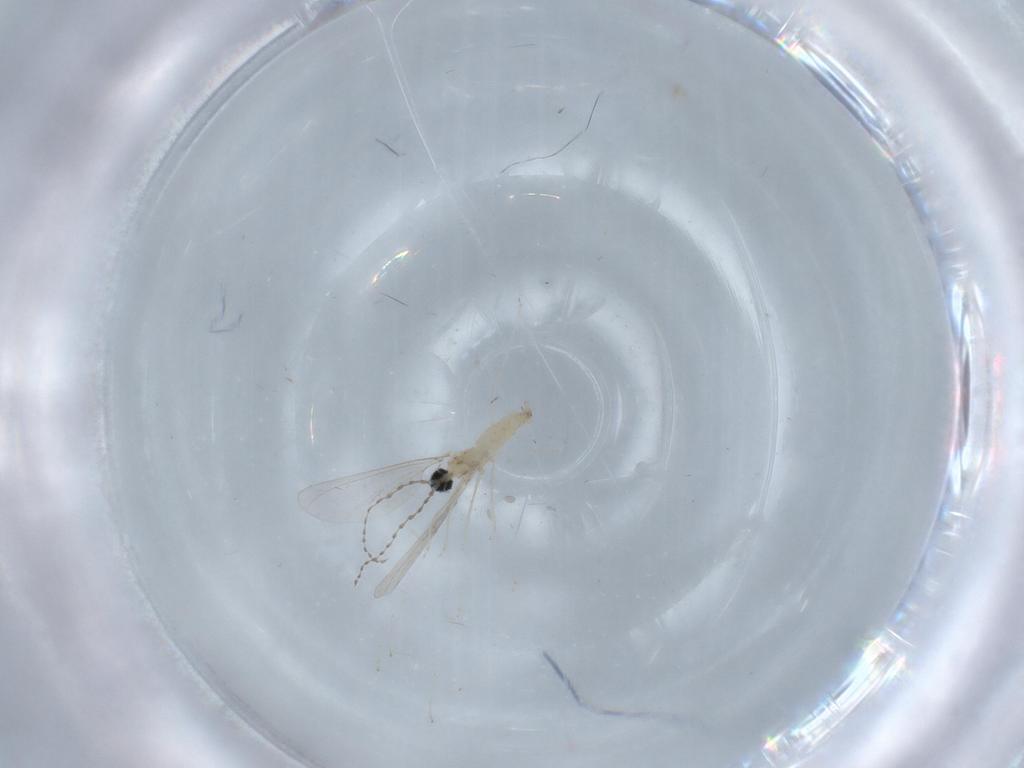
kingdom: Animalia
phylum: Arthropoda
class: Insecta
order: Diptera
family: Cecidomyiidae
